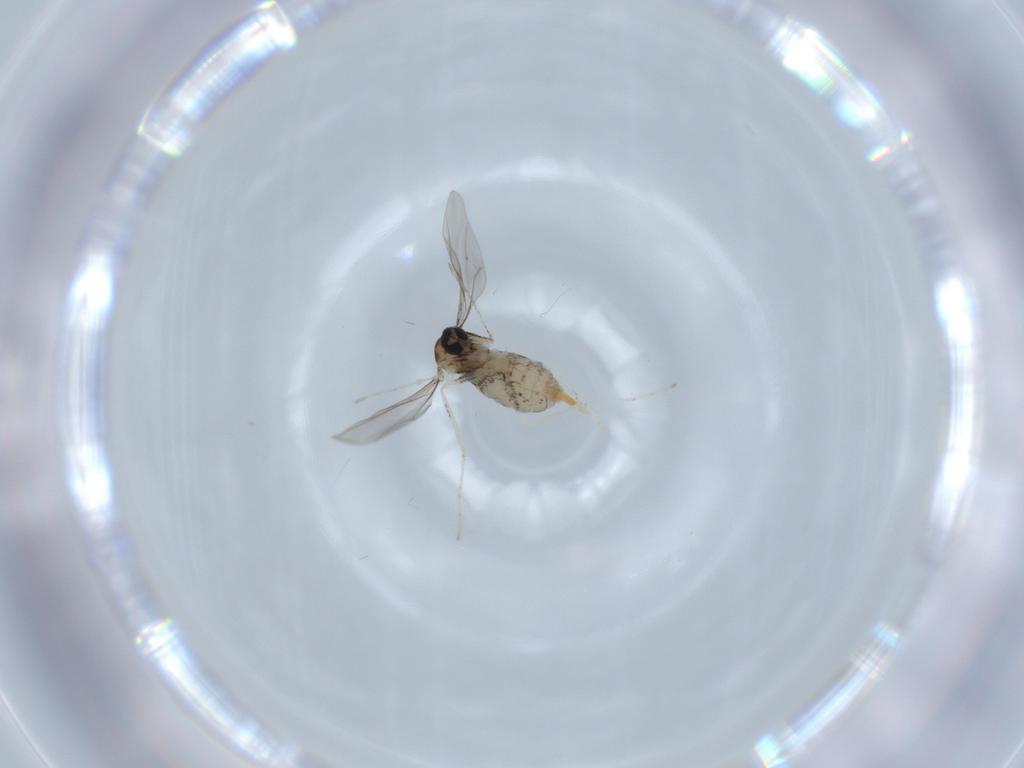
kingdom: Animalia
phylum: Arthropoda
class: Insecta
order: Diptera
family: Cecidomyiidae
